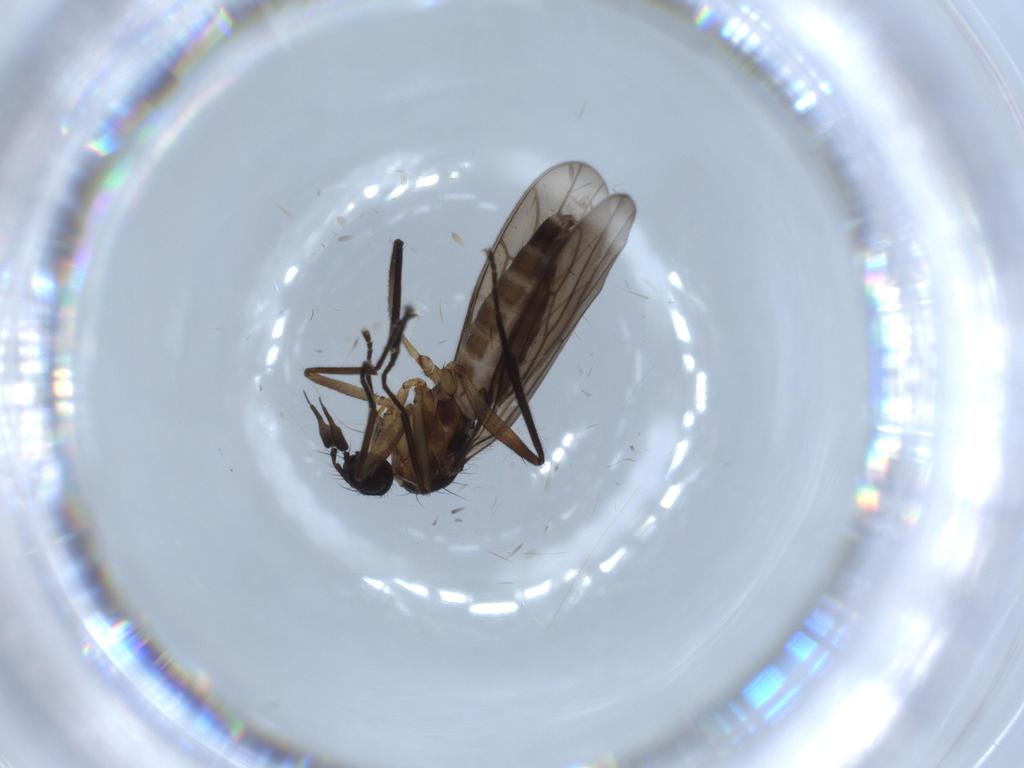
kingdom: Animalia
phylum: Arthropoda
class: Insecta
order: Diptera
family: Brachystomatidae
